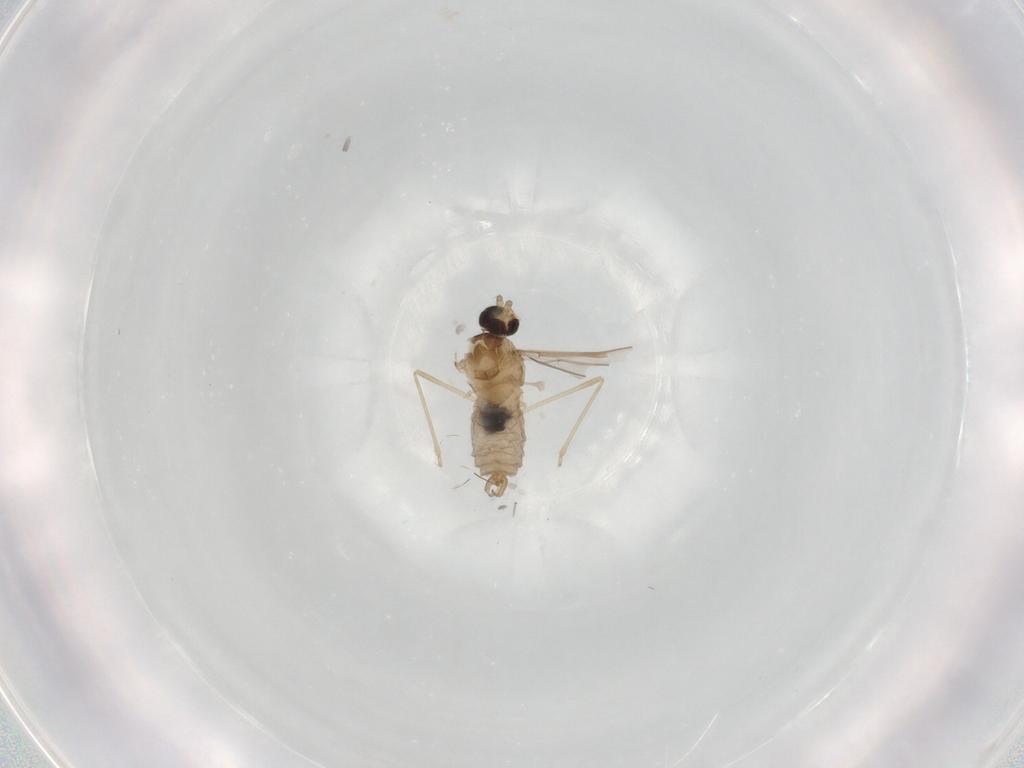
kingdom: Animalia
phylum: Arthropoda
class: Insecta
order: Diptera
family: Cecidomyiidae
